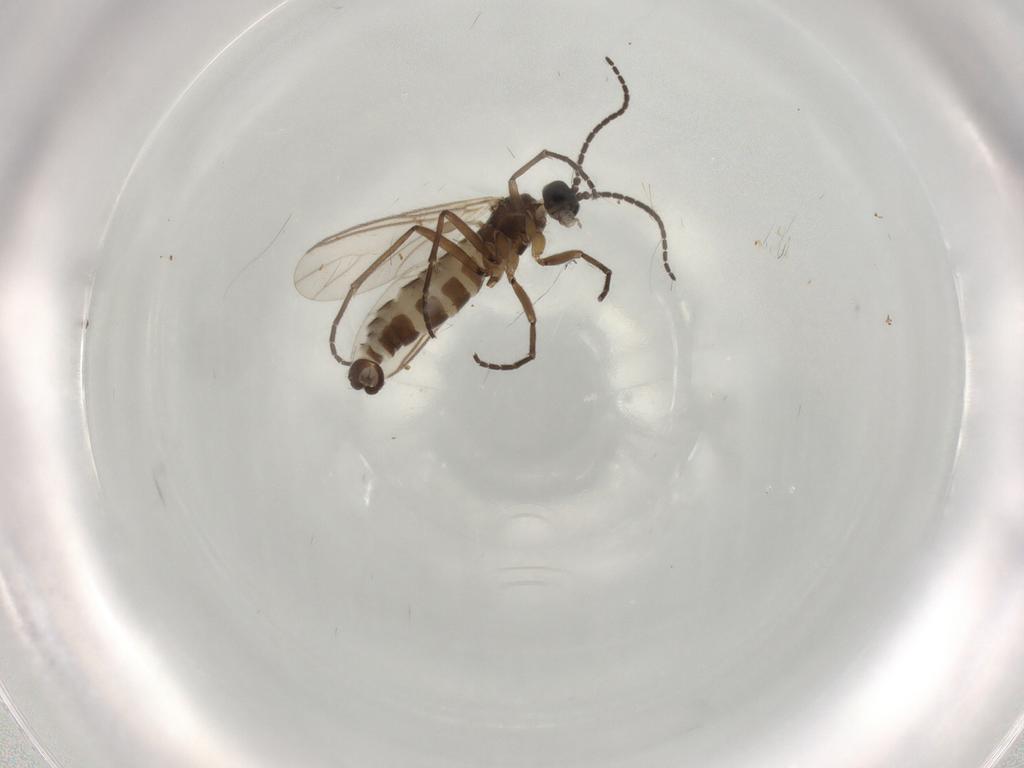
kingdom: Animalia
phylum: Arthropoda
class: Insecta
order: Diptera
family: Sciaridae
